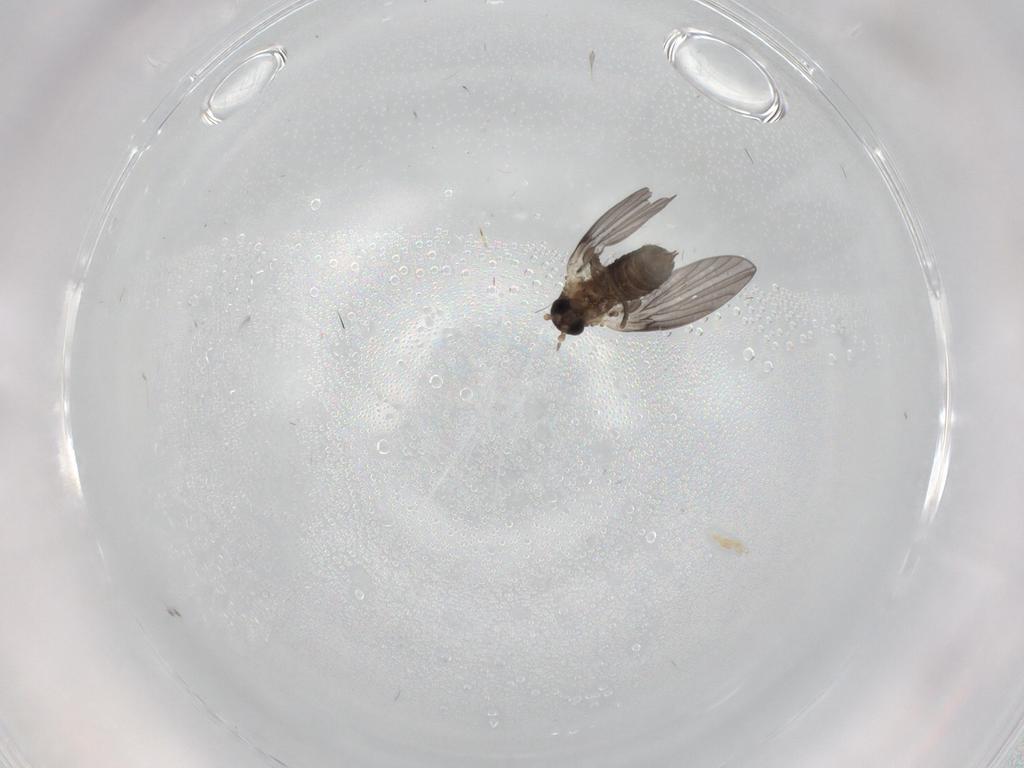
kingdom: Animalia
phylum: Arthropoda
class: Insecta
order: Diptera
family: Psychodidae
